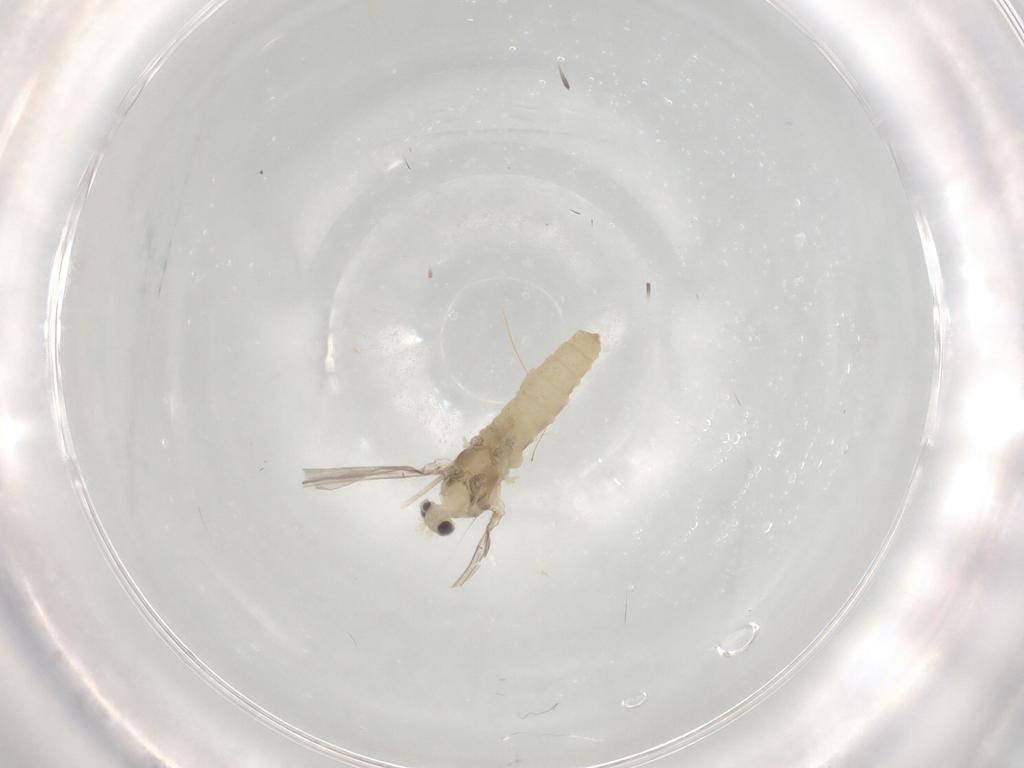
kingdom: Animalia
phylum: Arthropoda
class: Insecta
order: Diptera
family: Cecidomyiidae
